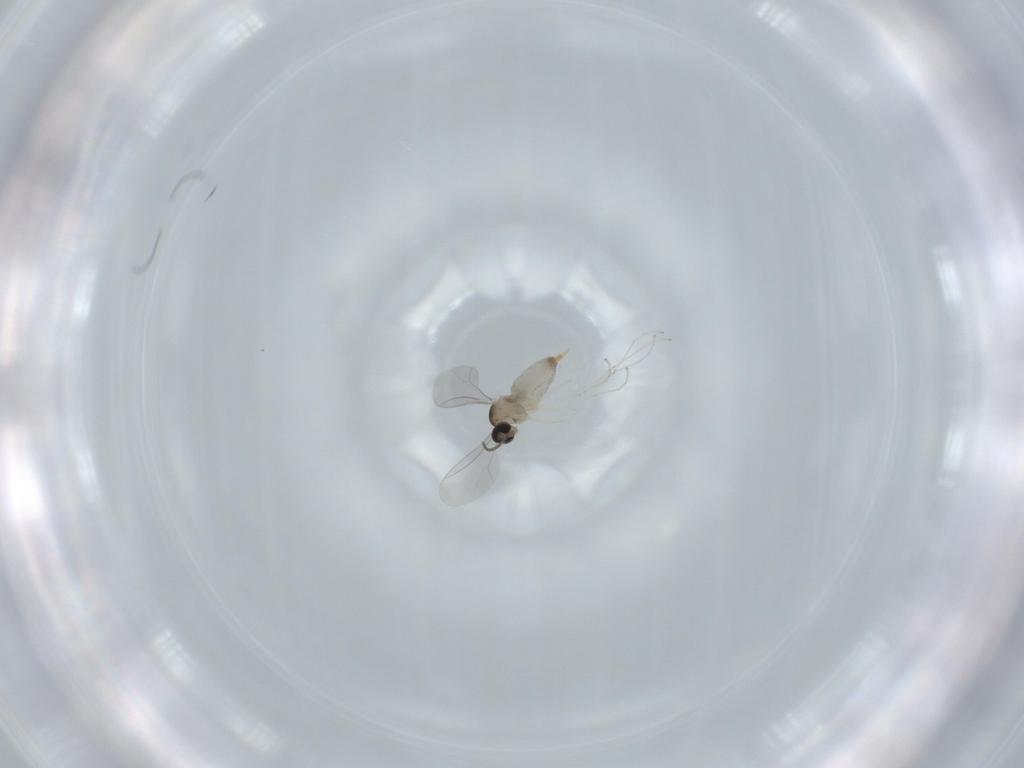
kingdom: Animalia
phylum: Arthropoda
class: Insecta
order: Diptera
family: Cecidomyiidae
